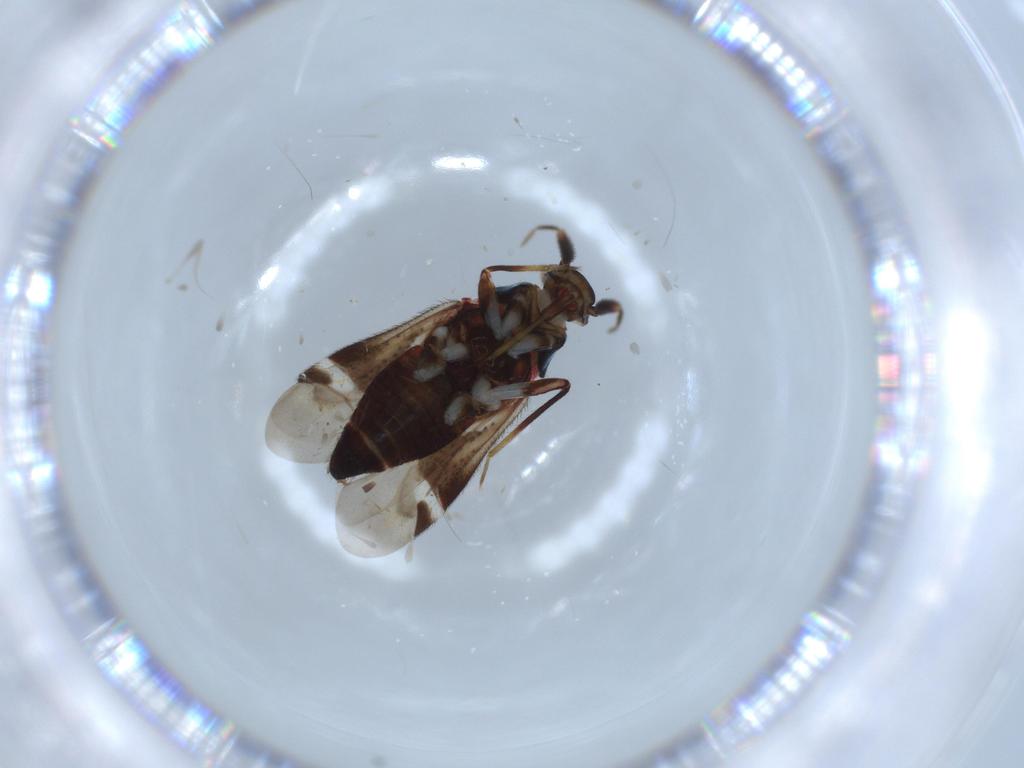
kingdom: Animalia
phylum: Arthropoda
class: Insecta
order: Hemiptera
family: Miridae
